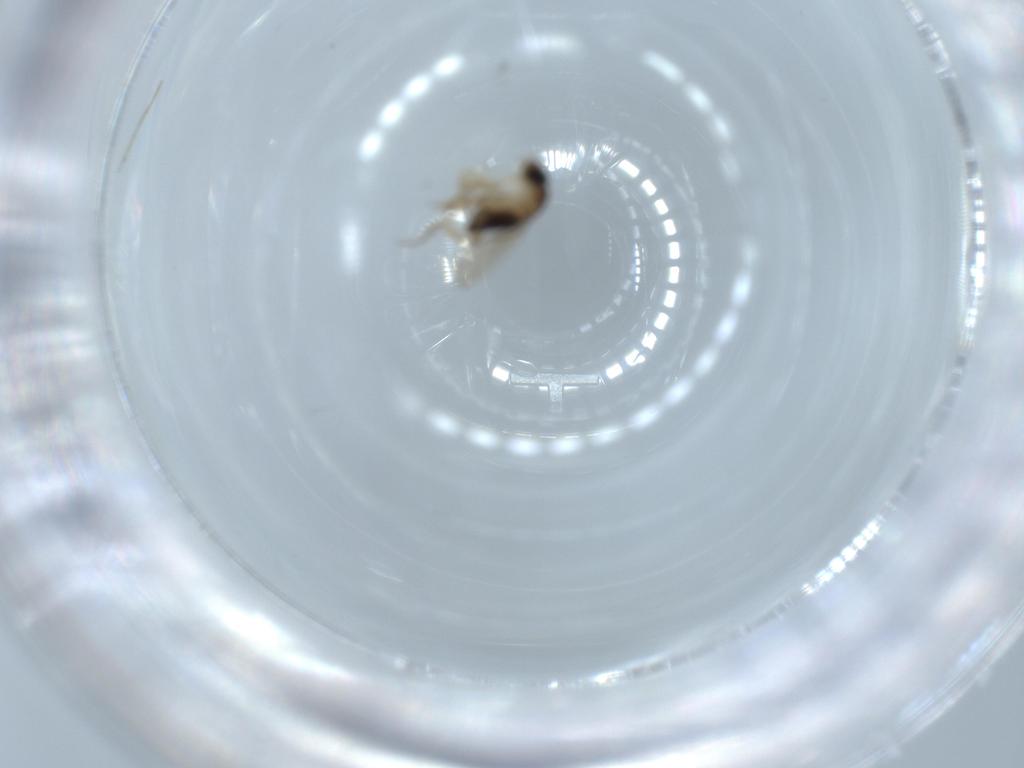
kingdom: Animalia
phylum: Arthropoda
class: Insecta
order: Diptera
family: Phoridae
